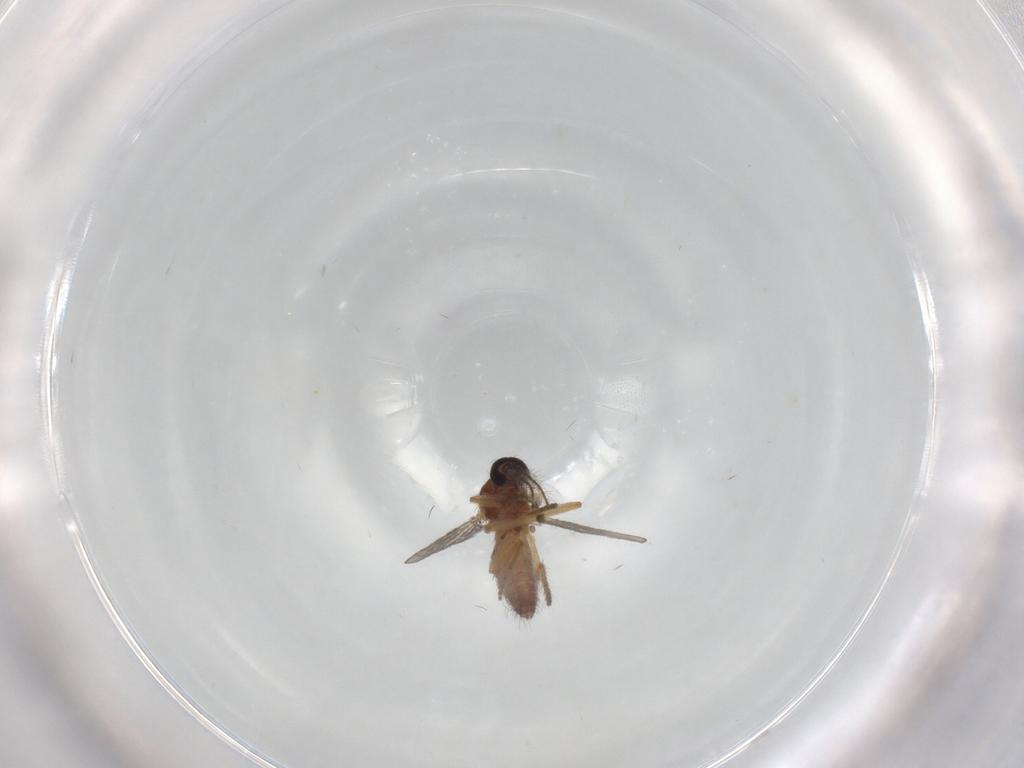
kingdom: Animalia
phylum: Arthropoda
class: Insecta
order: Diptera
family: Ceratopogonidae
